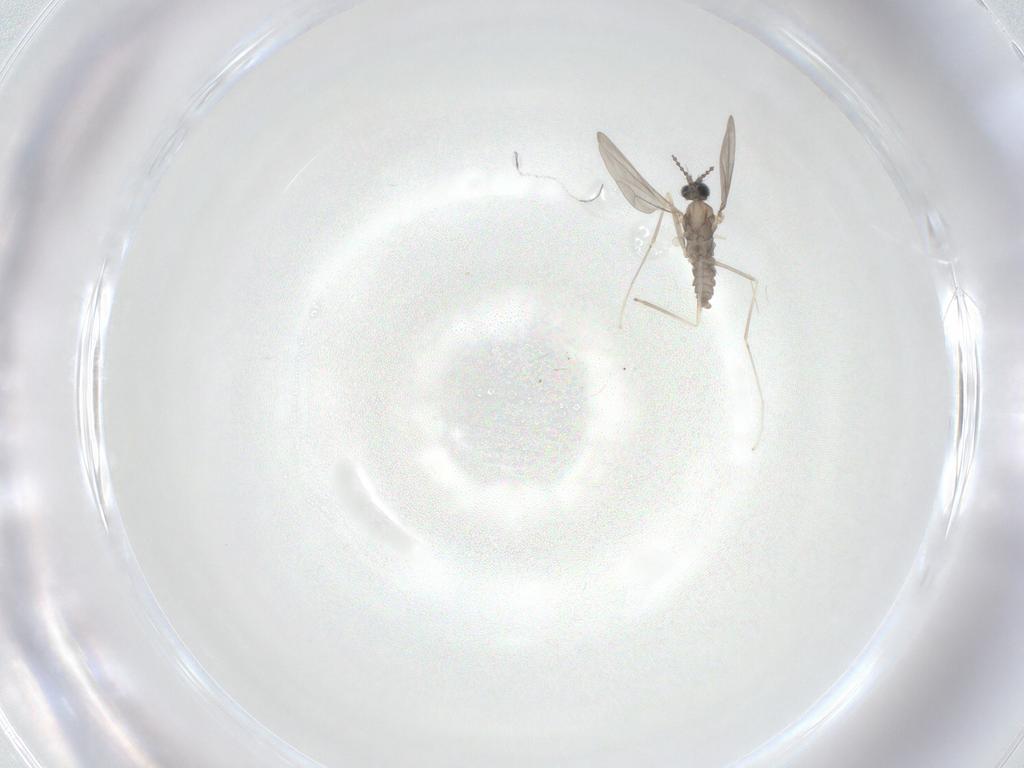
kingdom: Animalia
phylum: Arthropoda
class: Insecta
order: Diptera
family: Cecidomyiidae
